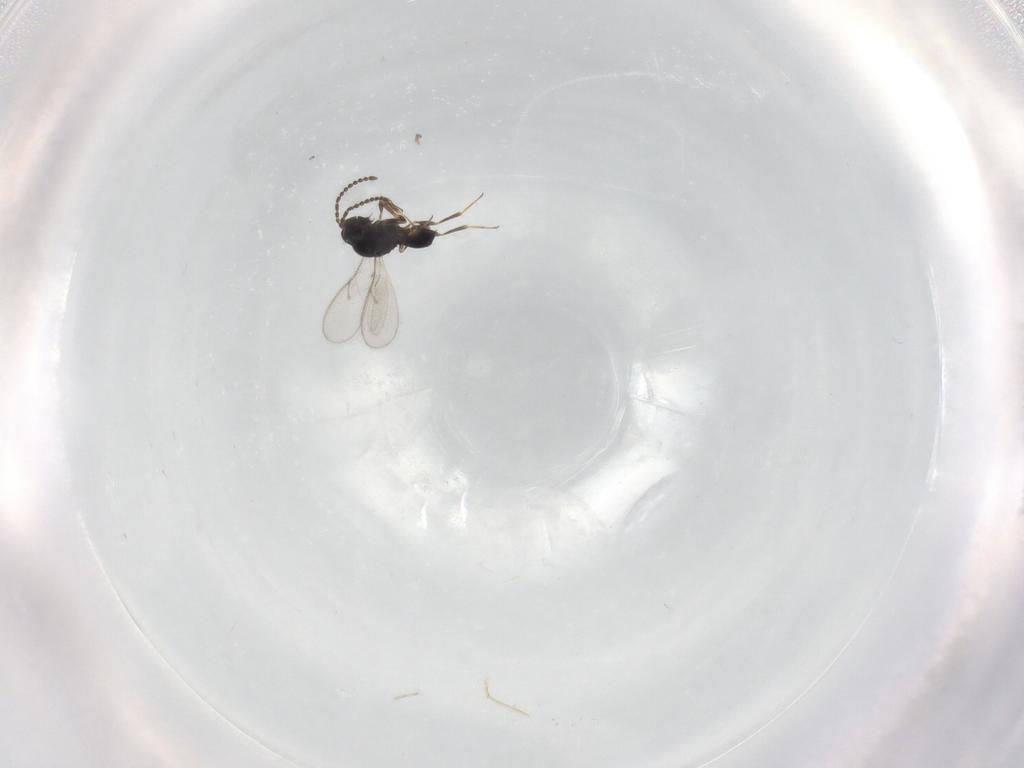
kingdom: Animalia
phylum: Arthropoda
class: Insecta
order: Hymenoptera
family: Scelionidae
